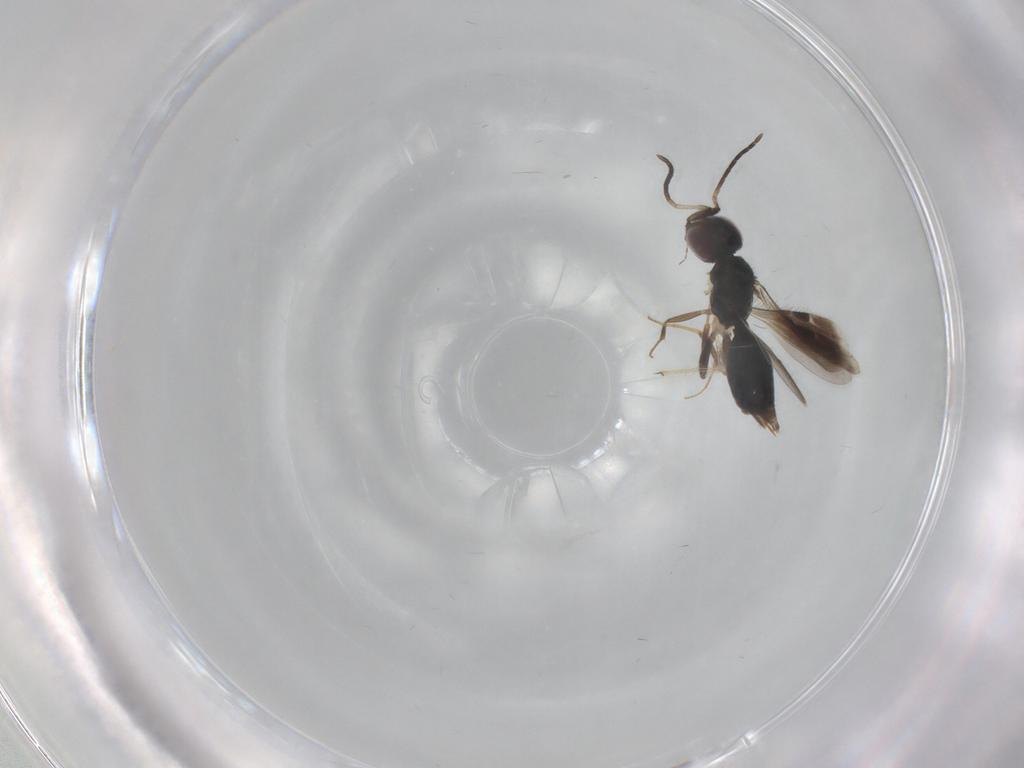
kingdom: Animalia
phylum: Arthropoda
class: Insecta
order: Hymenoptera
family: Megaspilidae
